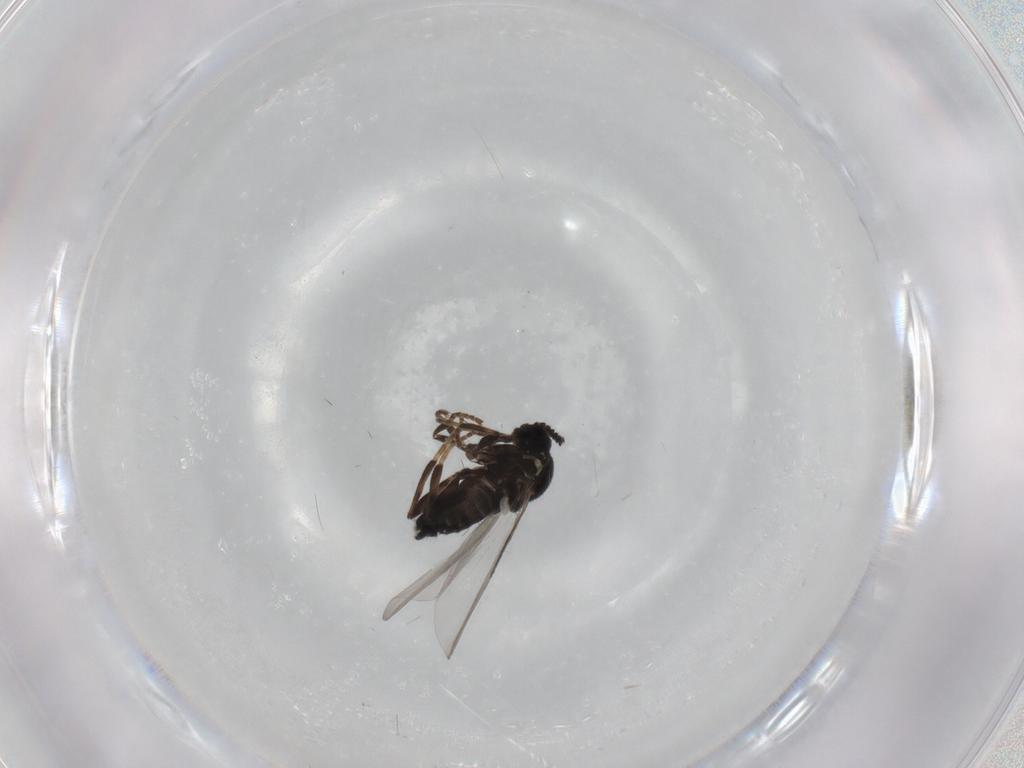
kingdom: Animalia
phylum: Arthropoda
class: Insecta
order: Diptera
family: Scatopsidae
